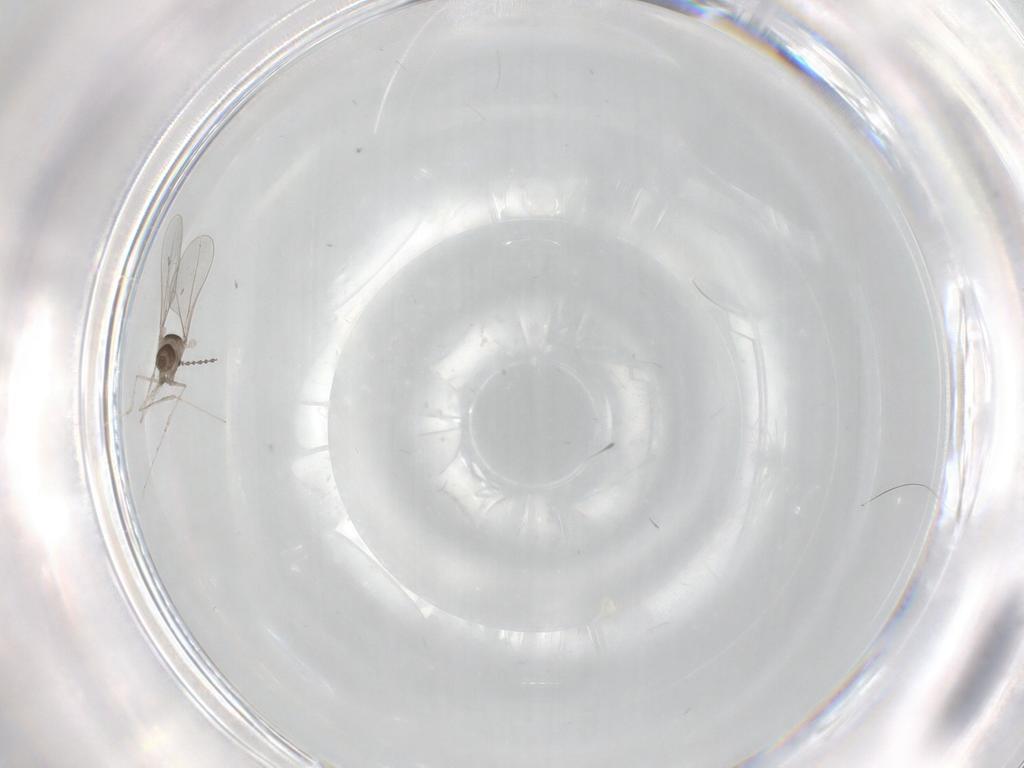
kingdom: Animalia
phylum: Arthropoda
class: Insecta
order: Diptera
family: Cecidomyiidae
